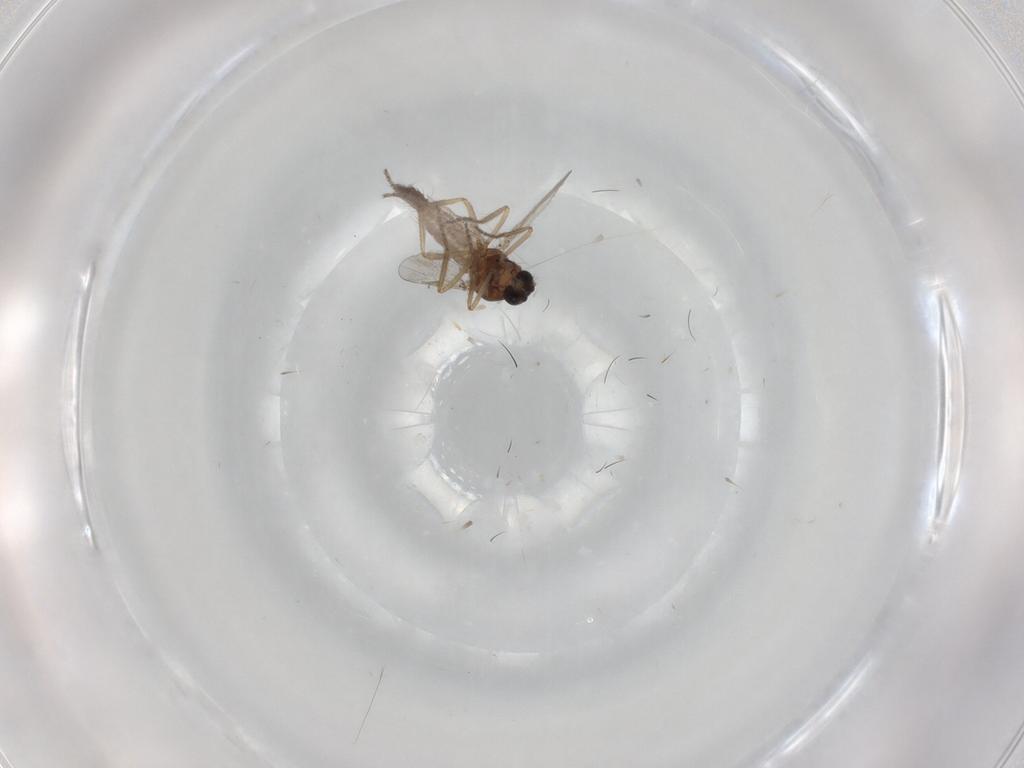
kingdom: Animalia
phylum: Arthropoda
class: Insecta
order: Diptera
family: Ceratopogonidae
